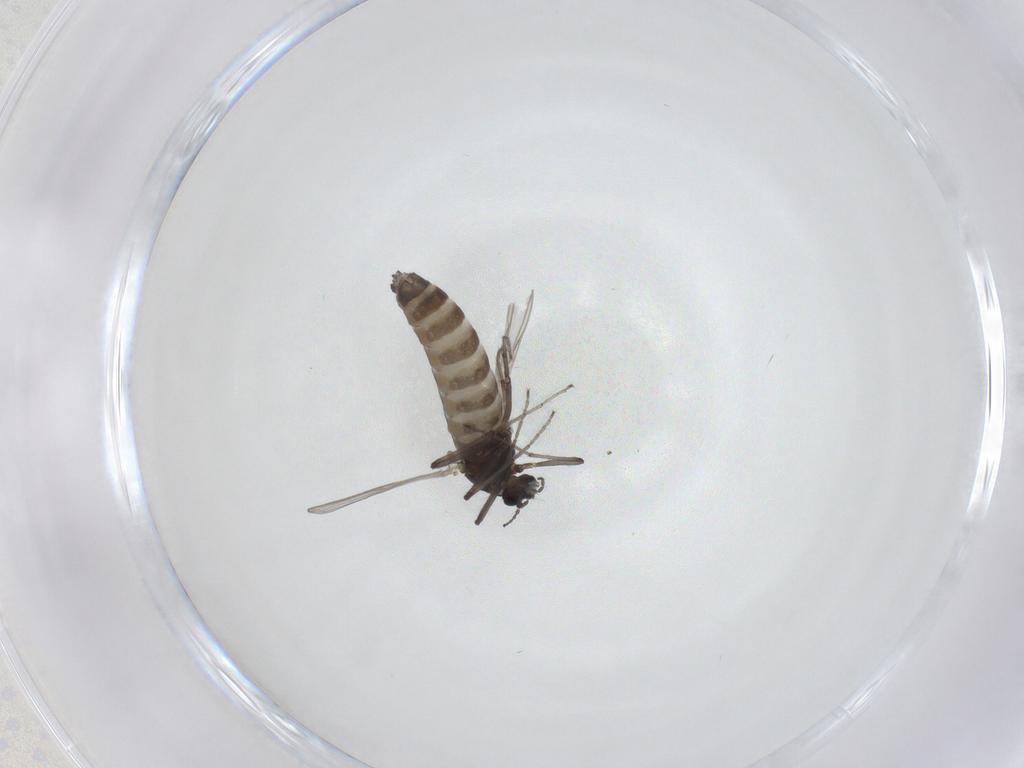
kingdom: Animalia
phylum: Arthropoda
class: Insecta
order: Diptera
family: Chironomidae
